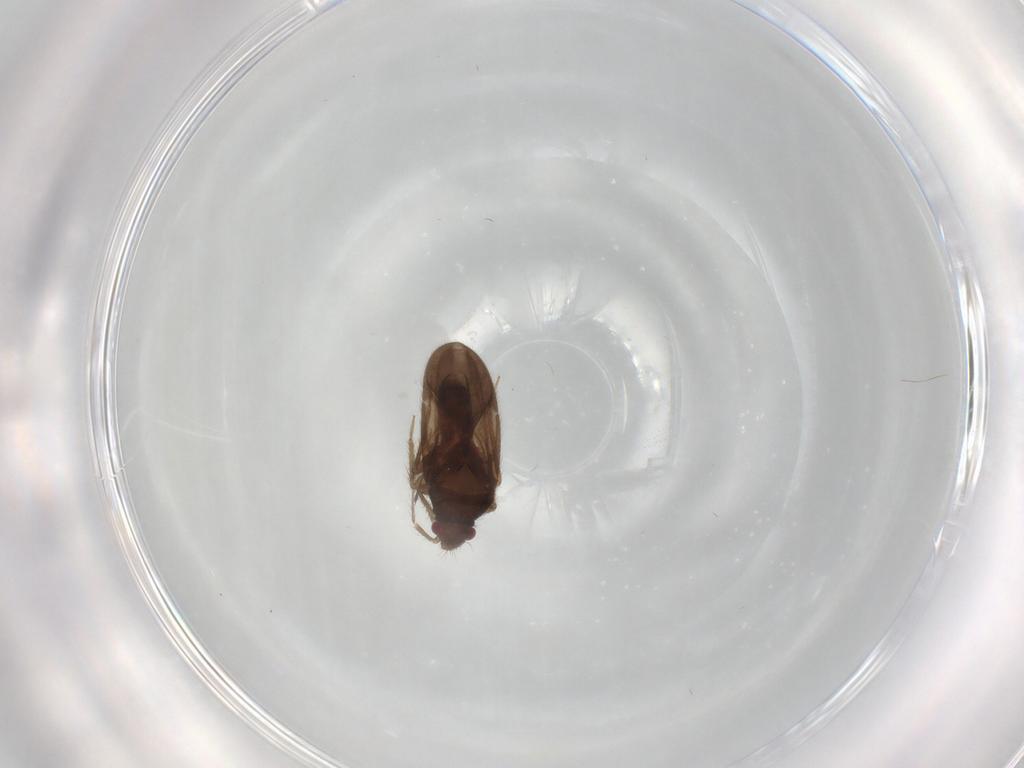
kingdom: Animalia
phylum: Arthropoda
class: Insecta
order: Hemiptera
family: Ceratocombidae
